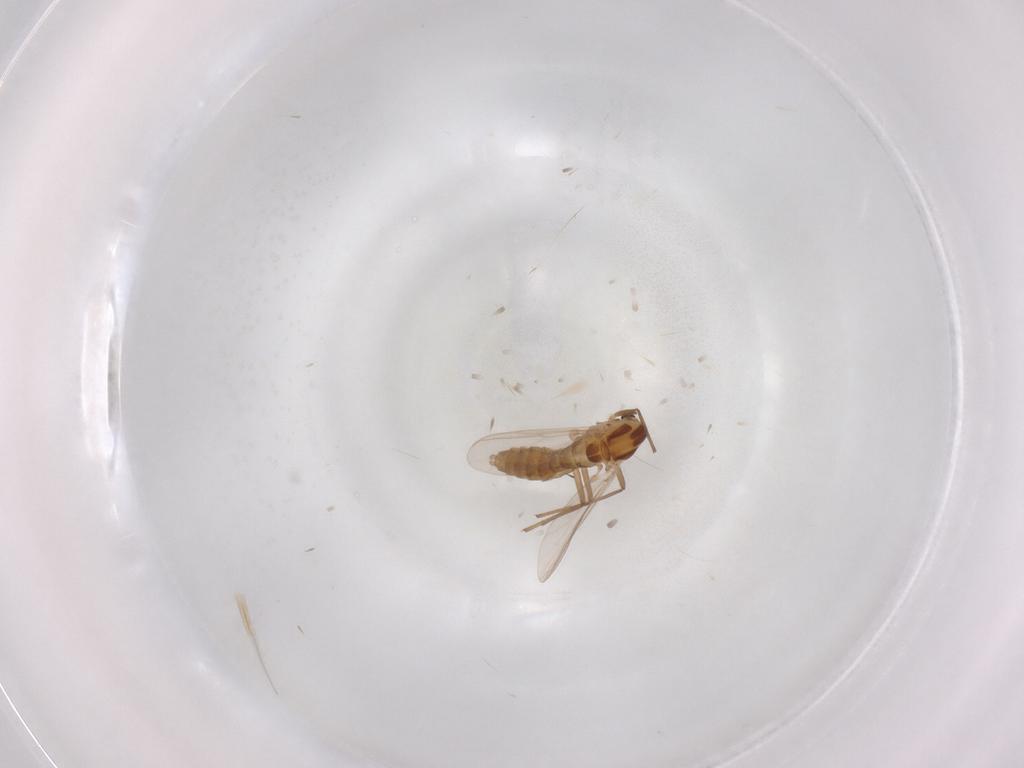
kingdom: Animalia
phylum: Arthropoda
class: Insecta
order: Diptera
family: Chironomidae
